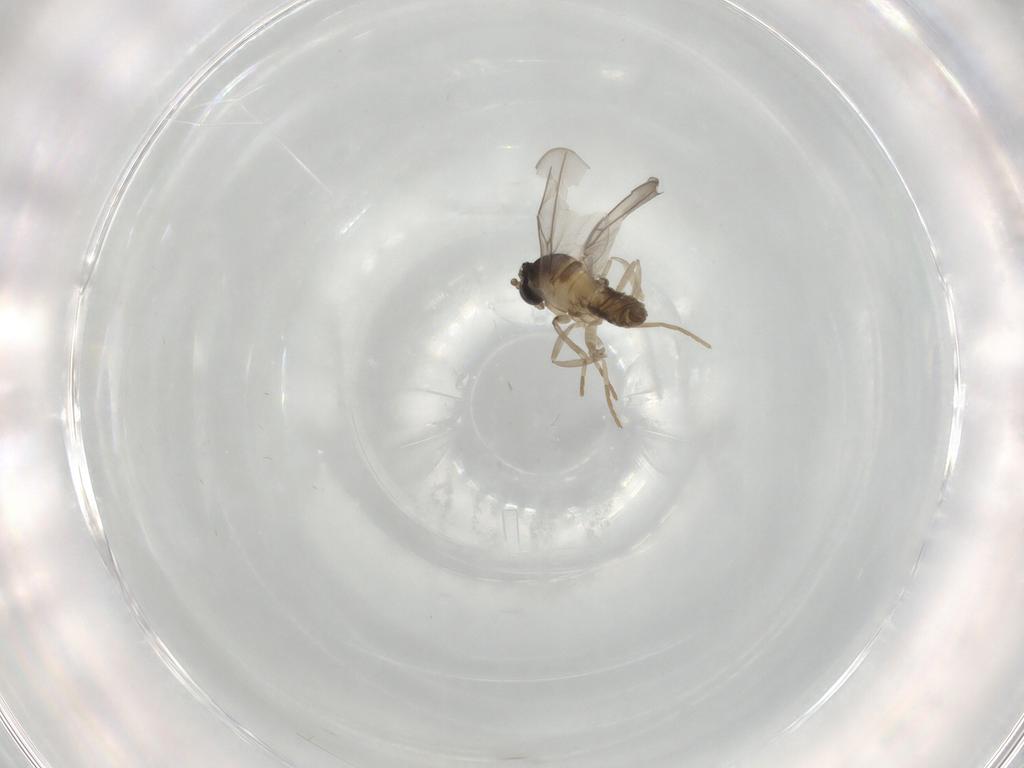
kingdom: Animalia
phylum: Arthropoda
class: Insecta
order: Diptera
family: Cecidomyiidae
